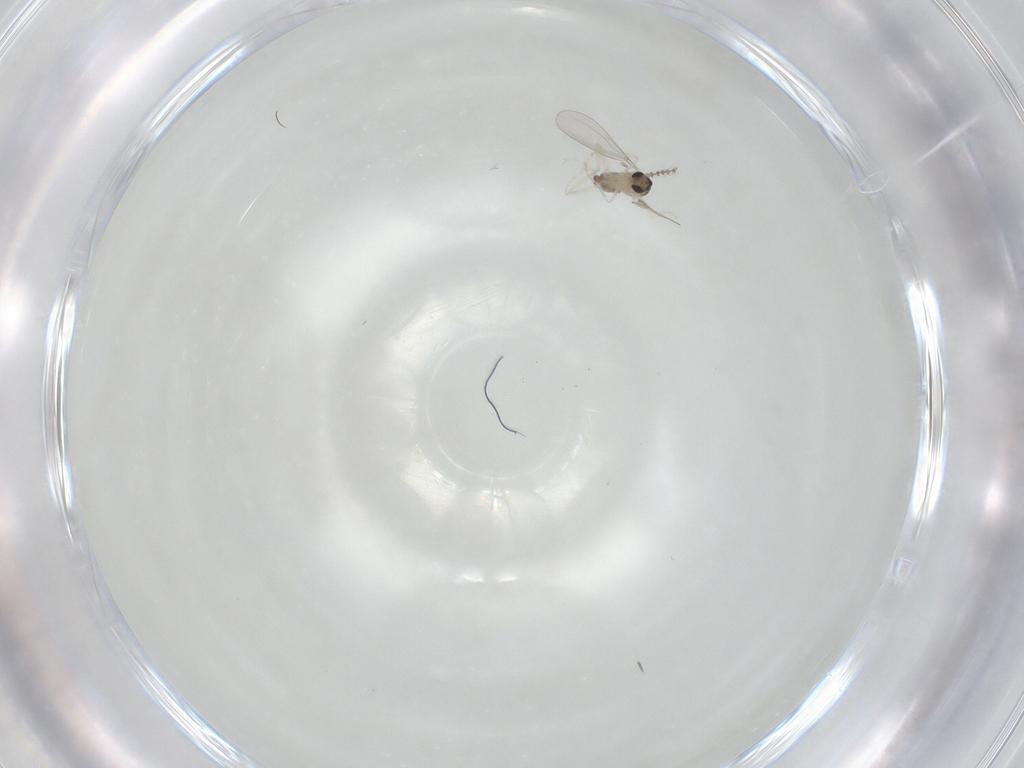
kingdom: Animalia
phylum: Arthropoda
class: Insecta
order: Diptera
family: Cecidomyiidae
